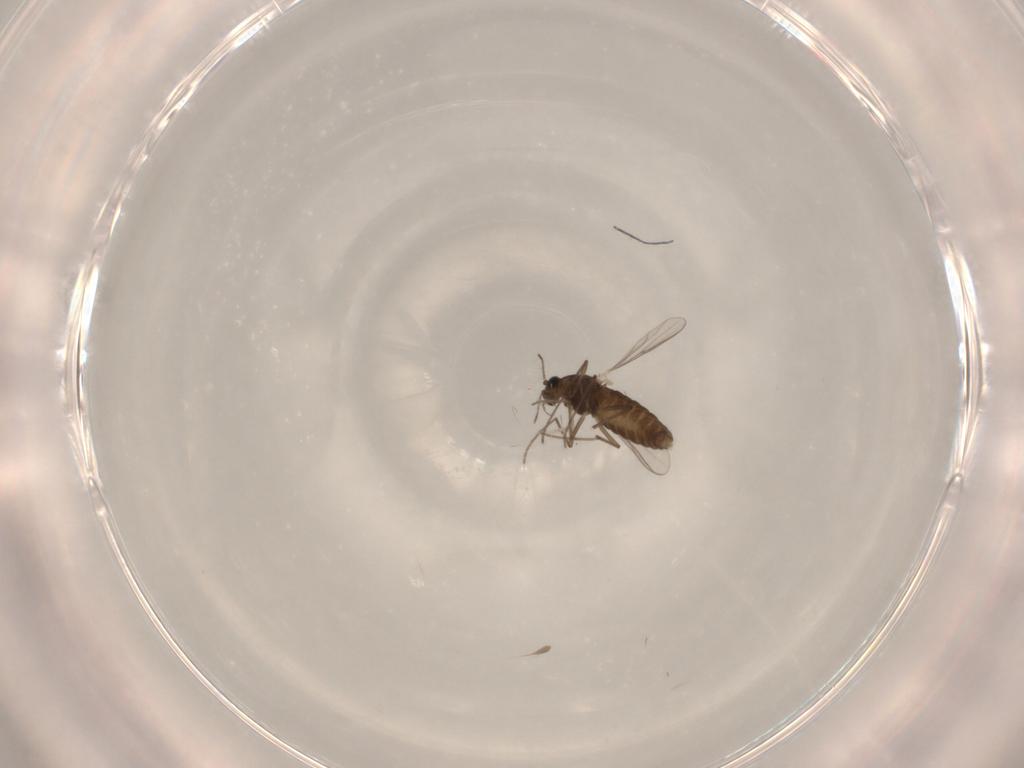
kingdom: Animalia
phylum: Arthropoda
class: Insecta
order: Diptera
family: Chironomidae
